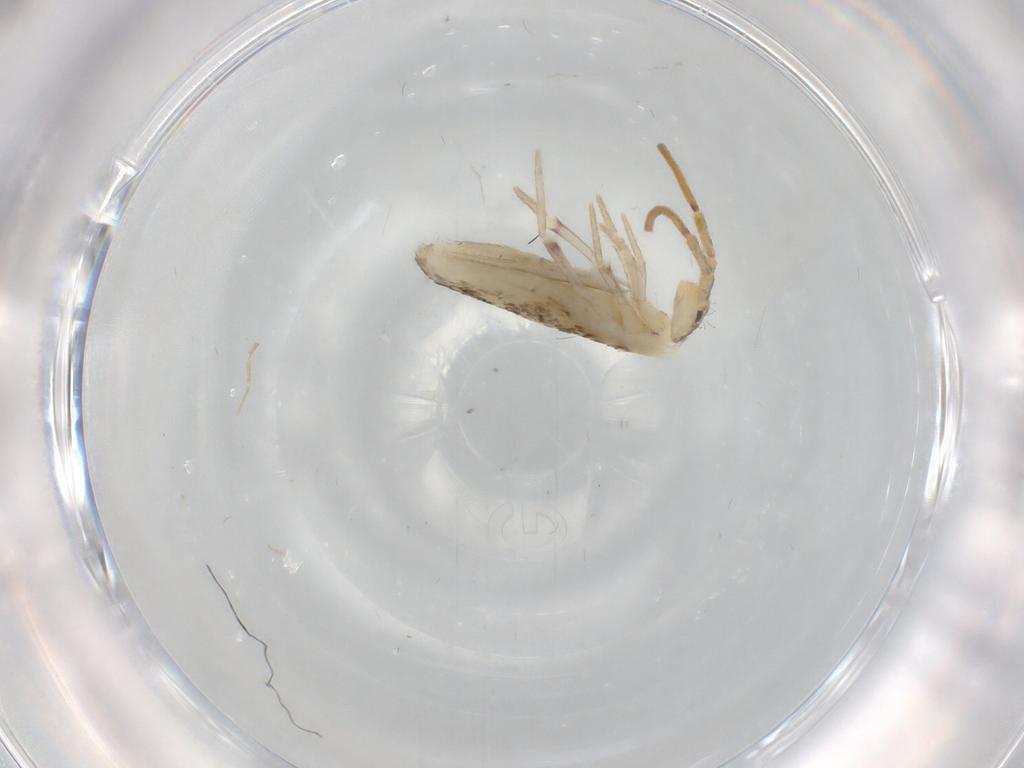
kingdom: Animalia
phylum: Arthropoda
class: Collembola
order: Poduromorpha
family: Hypogastruridae
